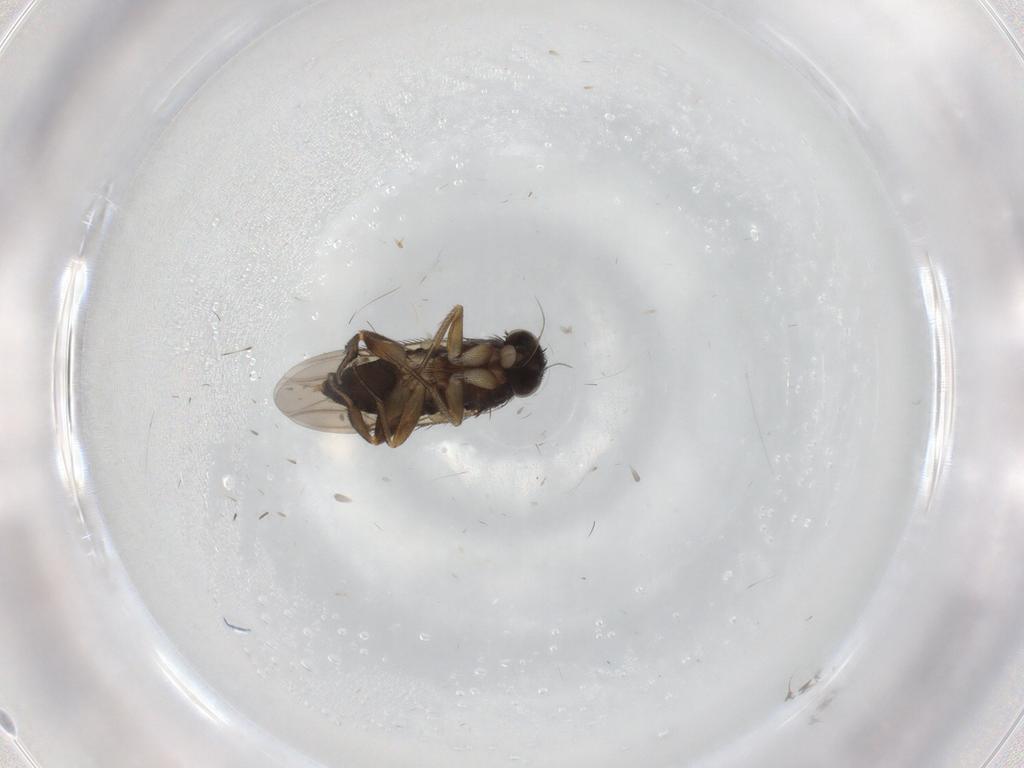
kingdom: Animalia
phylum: Arthropoda
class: Insecta
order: Diptera
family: Phoridae
